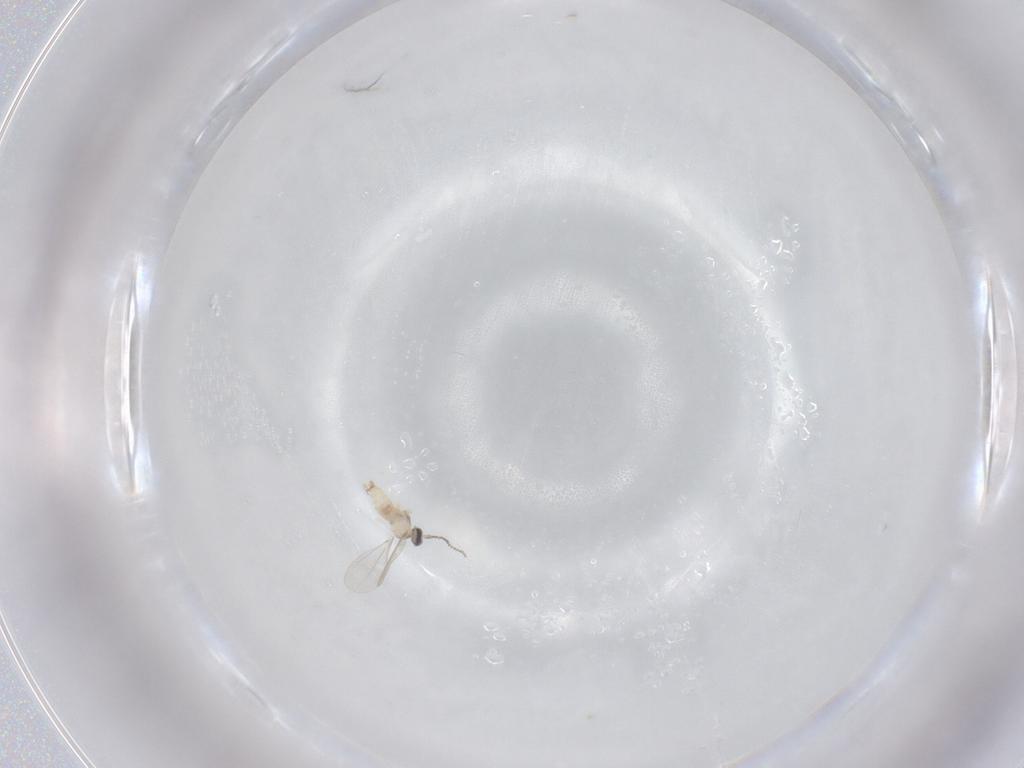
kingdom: Animalia
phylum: Arthropoda
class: Insecta
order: Diptera
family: Cecidomyiidae
